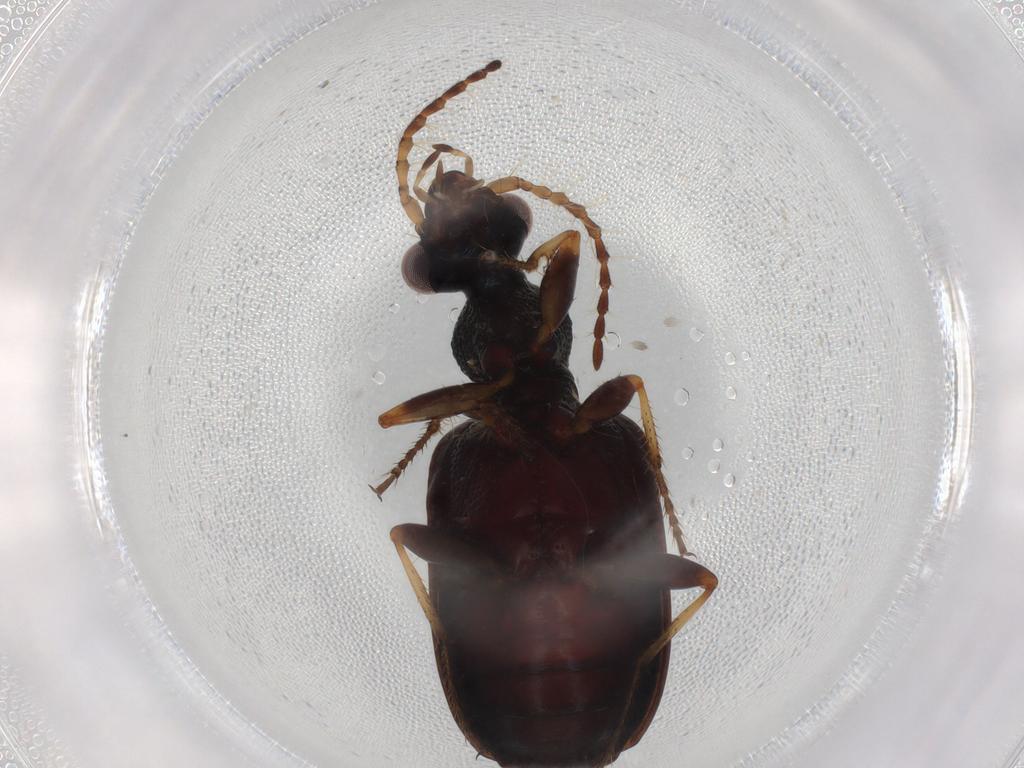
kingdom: Animalia
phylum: Arthropoda
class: Insecta
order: Coleoptera
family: Carabidae
